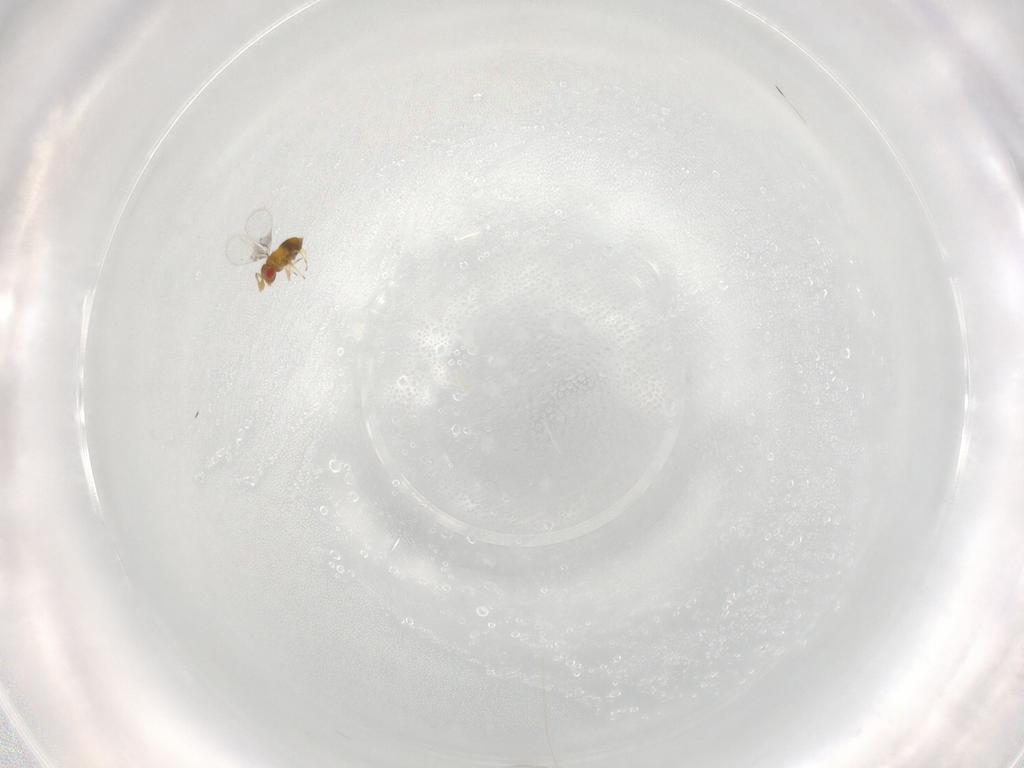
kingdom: Animalia
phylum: Arthropoda
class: Insecta
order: Hymenoptera
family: Trichogrammatidae
